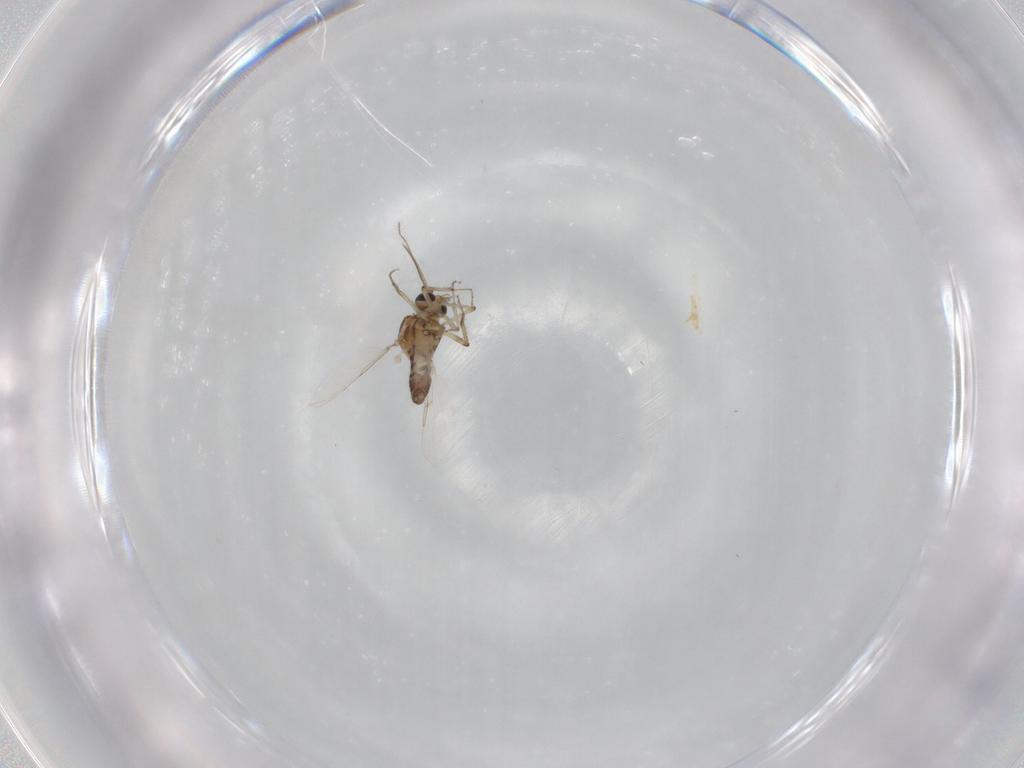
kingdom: Animalia
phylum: Arthropoda
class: Insecta
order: Diptera
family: Ceratopogonidae
